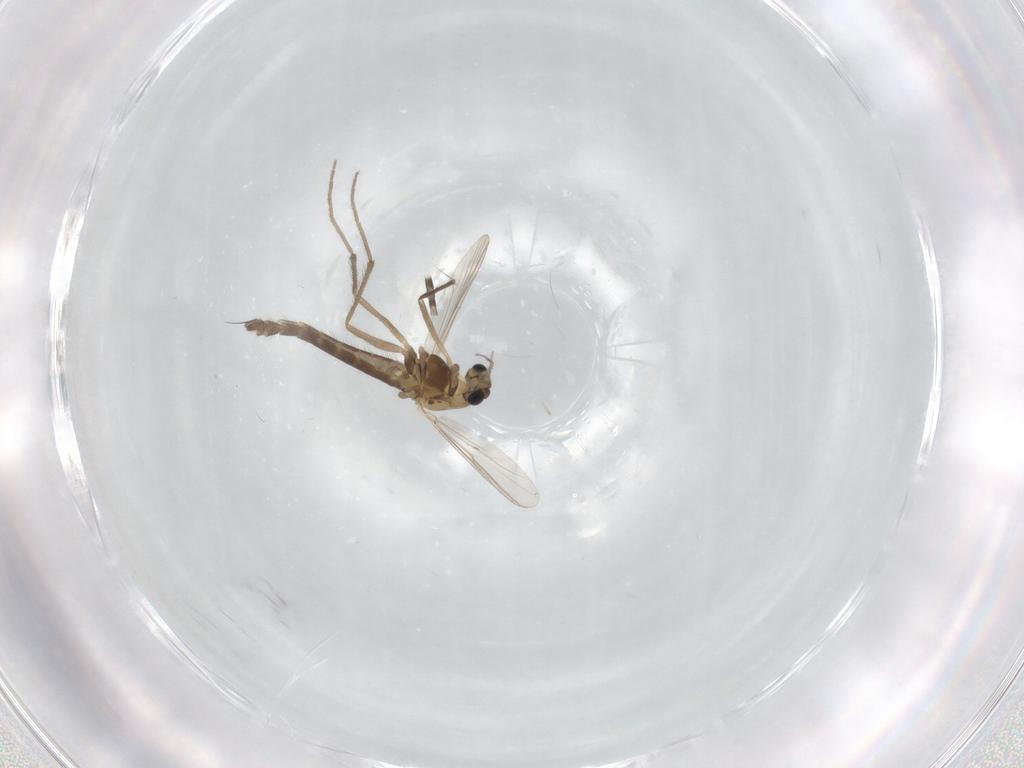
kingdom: Animalia
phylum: Arthropoda
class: Insecta
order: Diptera
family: Chironomidae
